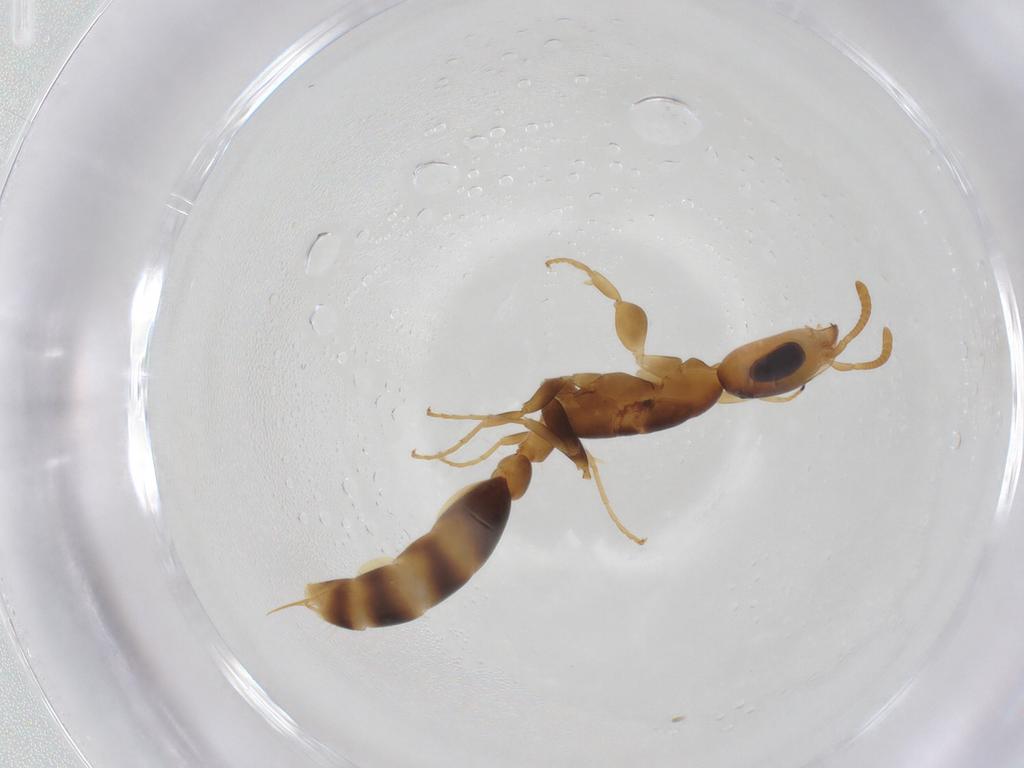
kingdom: Animalia
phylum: Arthropoda
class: Insecta
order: Hymenoptera
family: Formicidae
